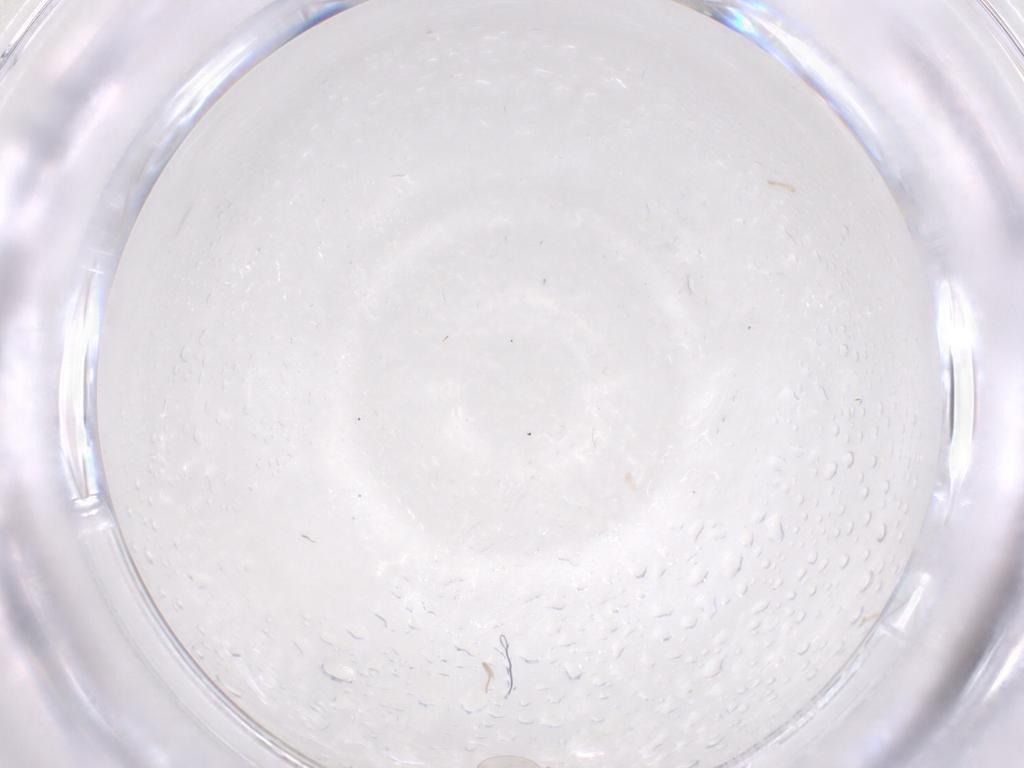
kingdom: Animalia
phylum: Arthropoda
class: Insecta
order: Diptera
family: Cecidomyiidae
